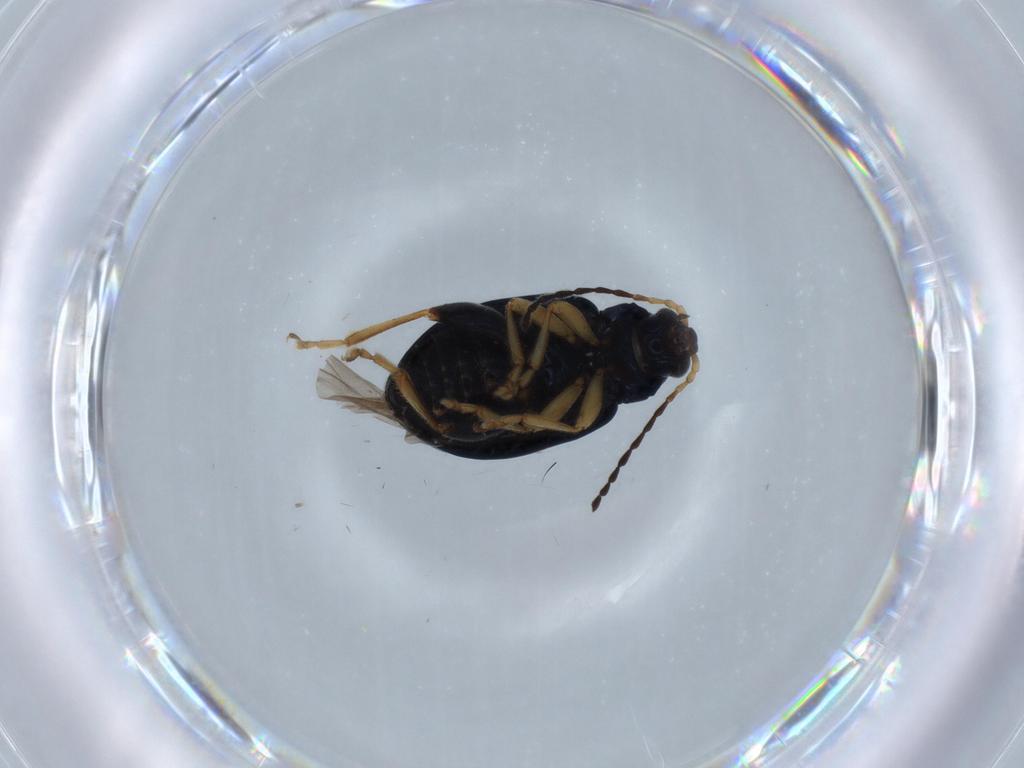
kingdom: Animalia
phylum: Arthropoda
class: Insecta
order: Coleoptera
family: Chrysomelidae
